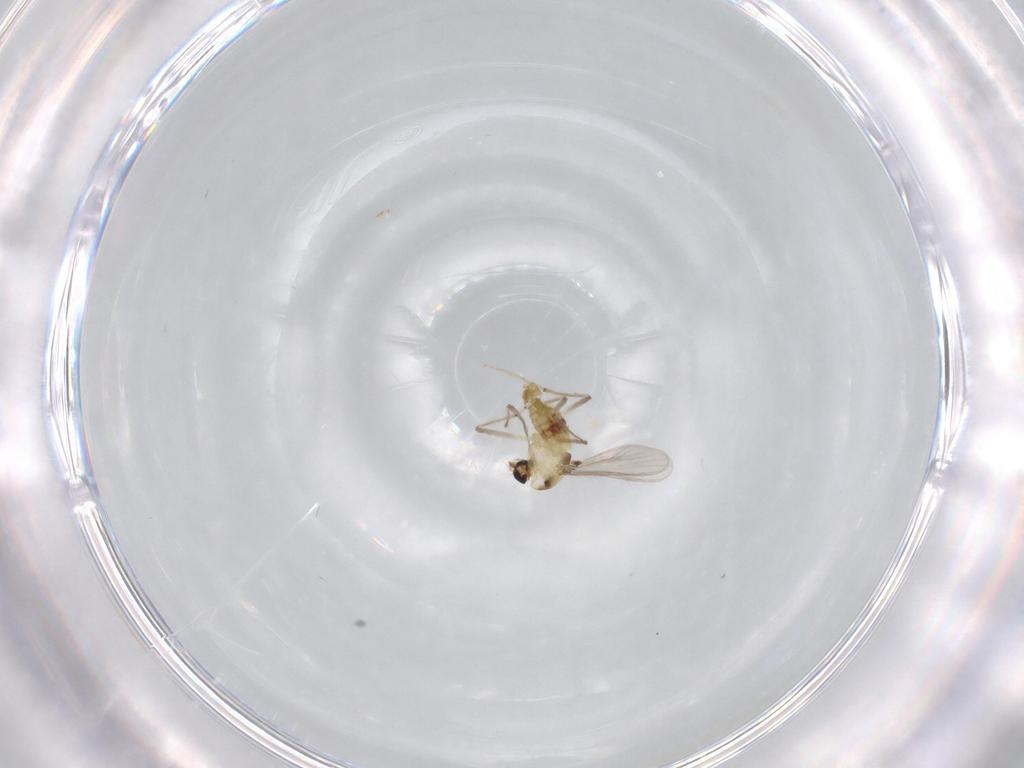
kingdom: Animalia
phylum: Arthropoda
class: Insecta
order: Diptera
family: Chironomidae
